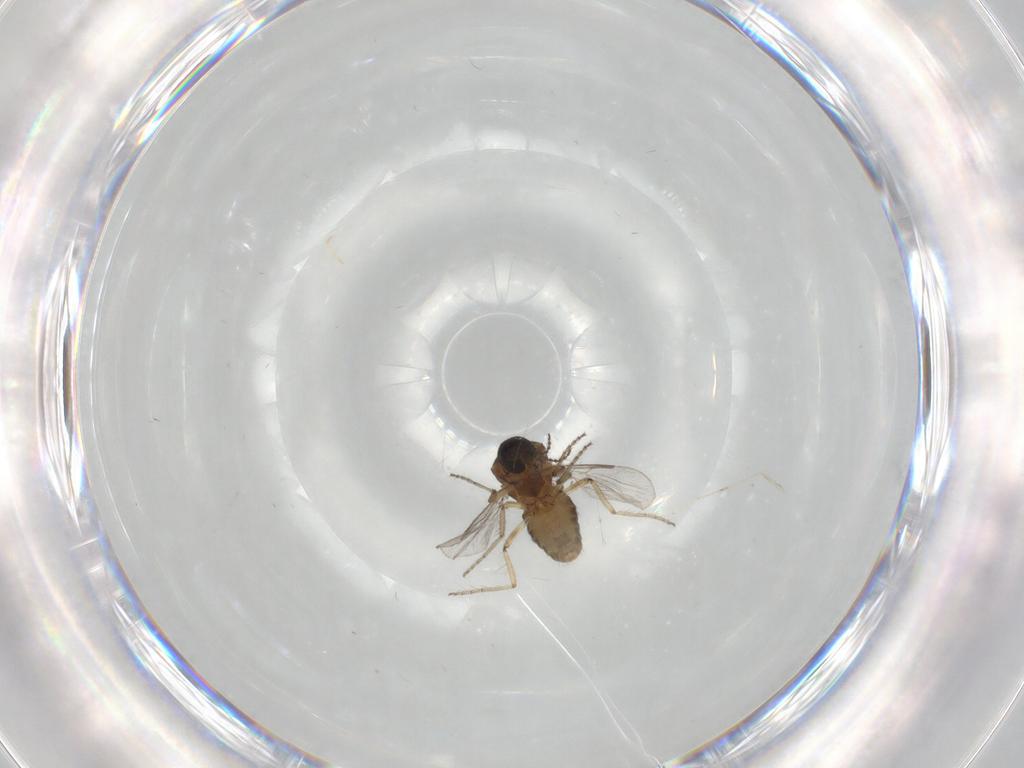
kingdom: Animalia
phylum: Arthropoda
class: Insecta
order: Diptera
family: Ceratopogonidae
